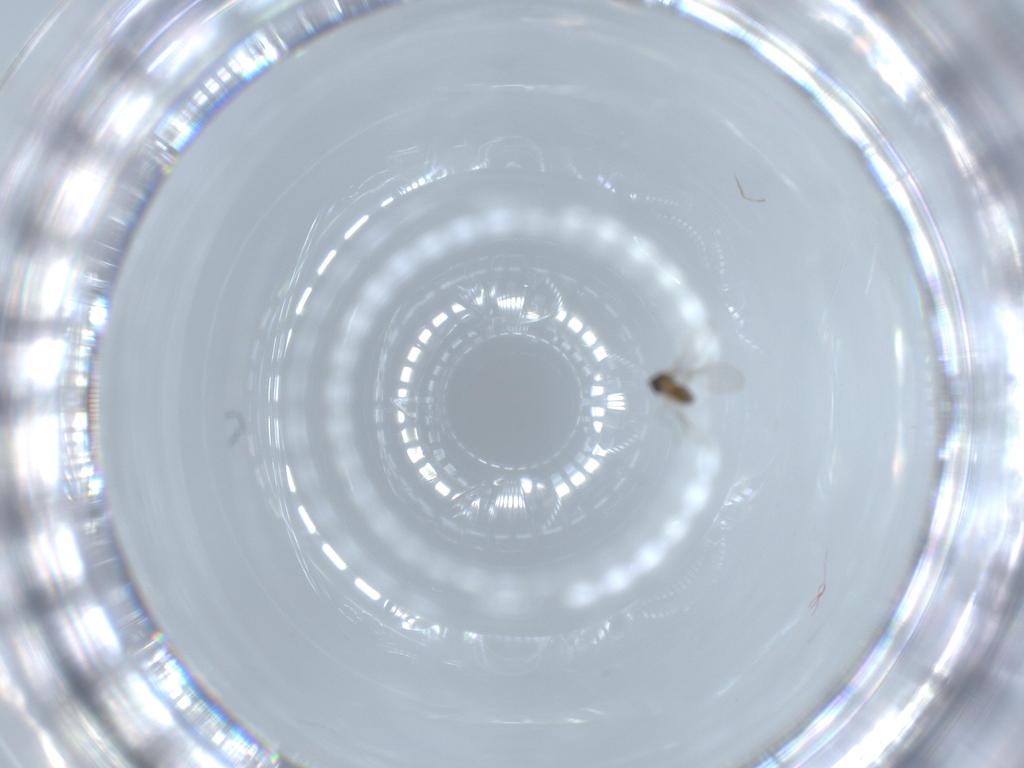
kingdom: Animalia
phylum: Arthropoda
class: Insecta
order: Diptera
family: Cecidomyiidae
